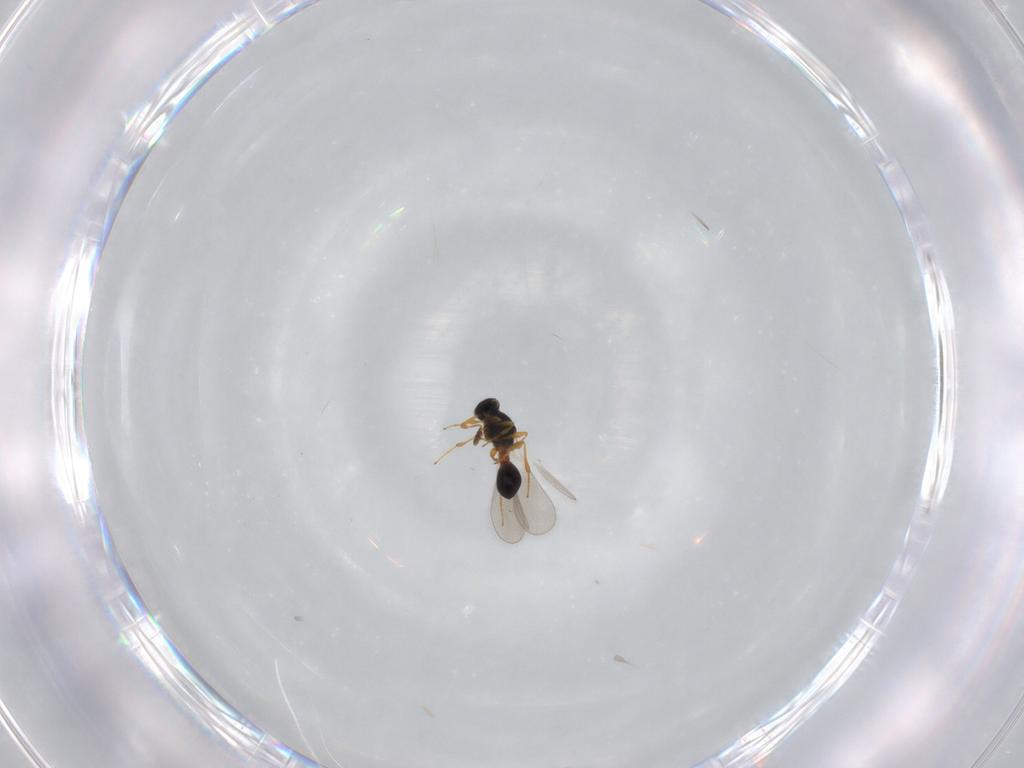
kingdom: Animalia
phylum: Arthropoda
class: Insecta
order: Hymenoptera
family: Platygastridae
